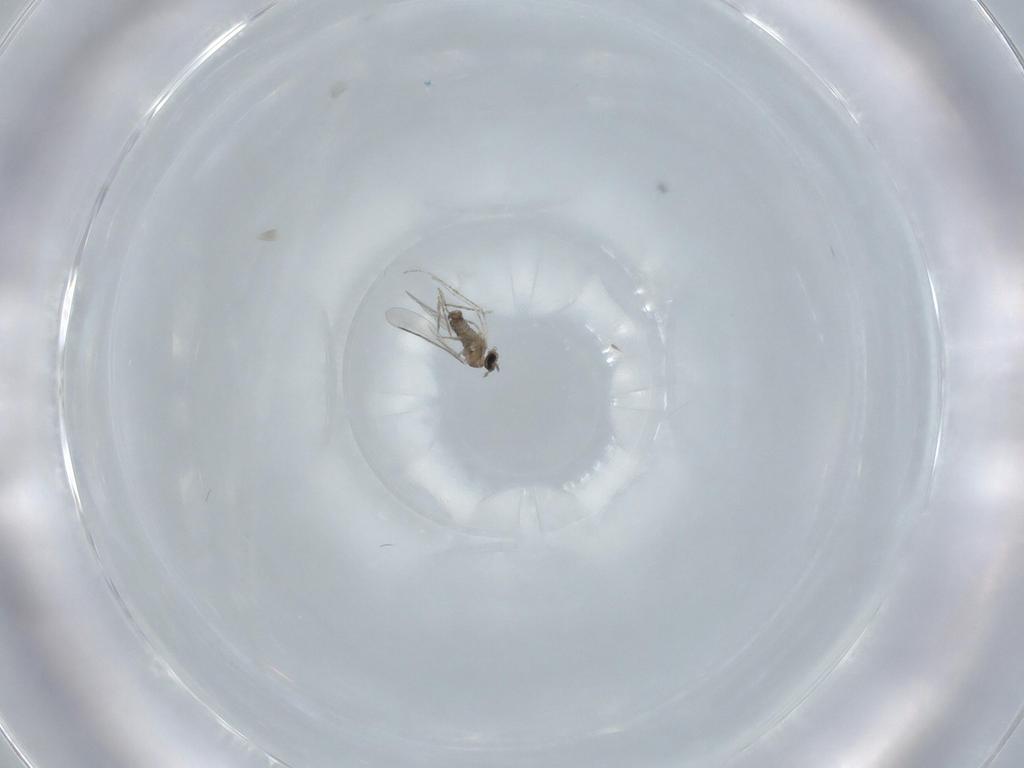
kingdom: Animalia
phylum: Arthropoda
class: Insecta
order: Diptera
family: Cecidomyiidae
